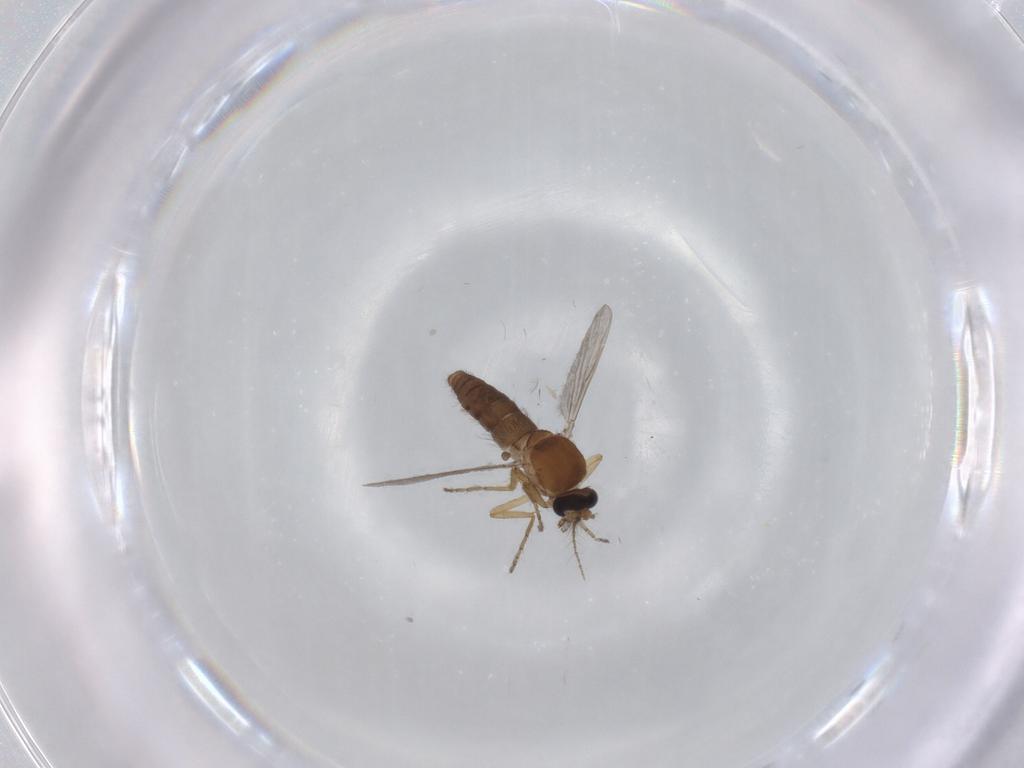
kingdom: Animalia
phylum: Arthropoda
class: Insecta
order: Diptera
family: Ceratopogonidae
